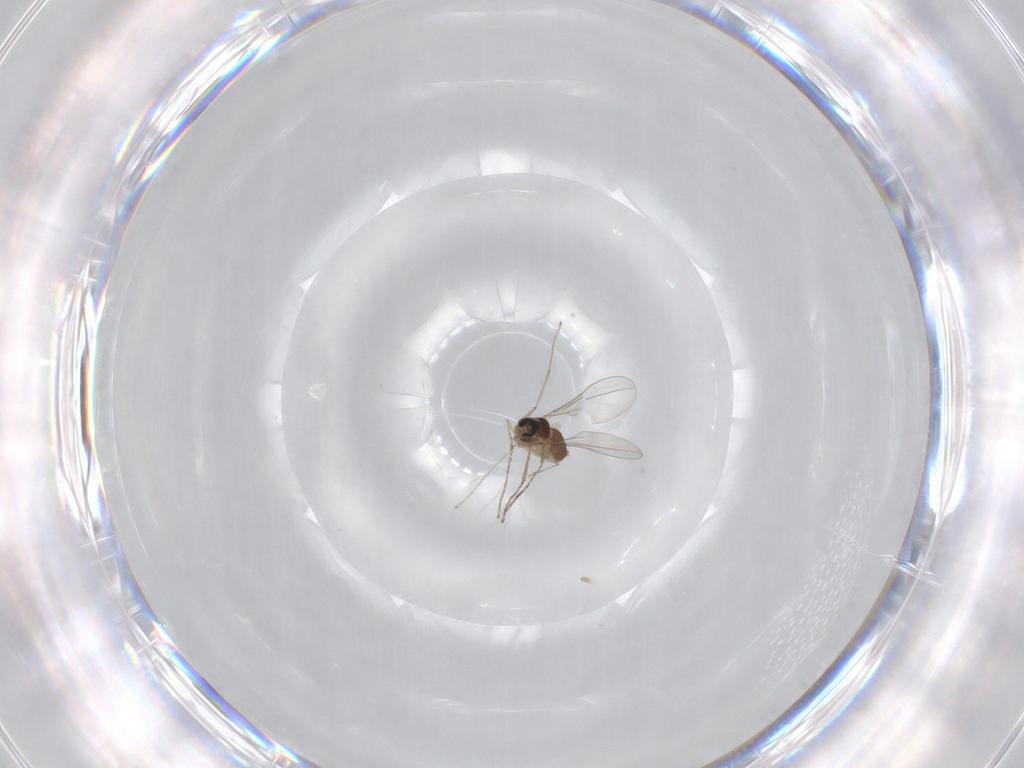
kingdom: Animalia
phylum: Arthropoda
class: Insecta
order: Diptera
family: Cecidomyiidae
